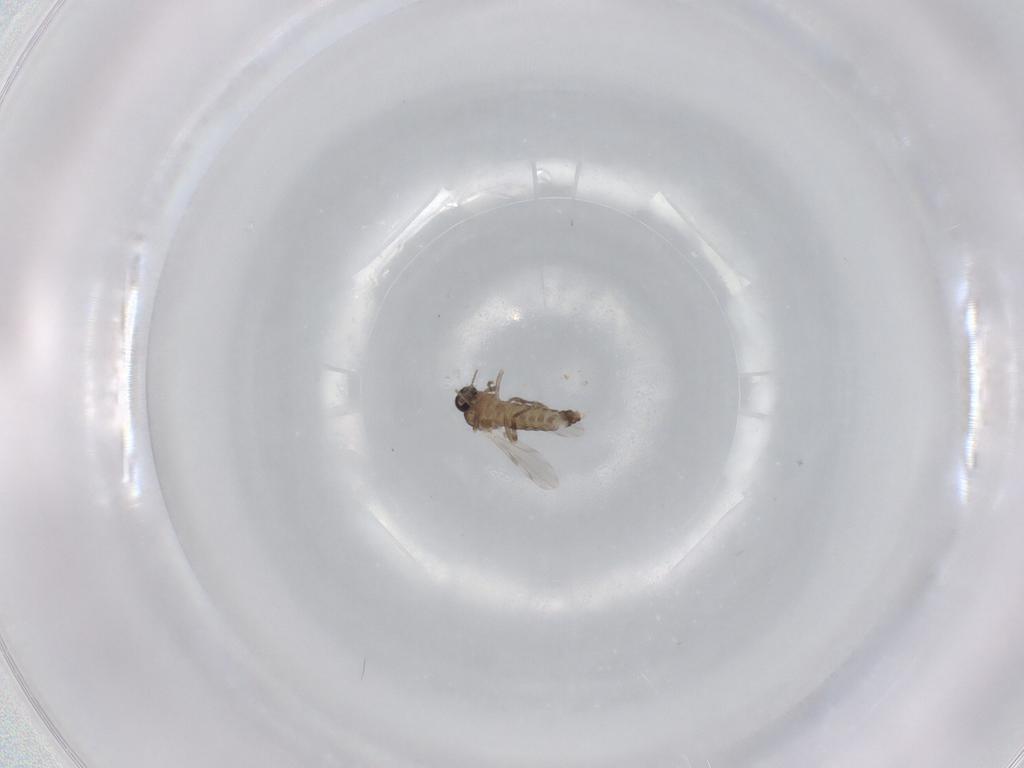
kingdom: Animalia
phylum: Arthropoda
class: Insecta
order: Diptera
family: Ceratopogonidae
